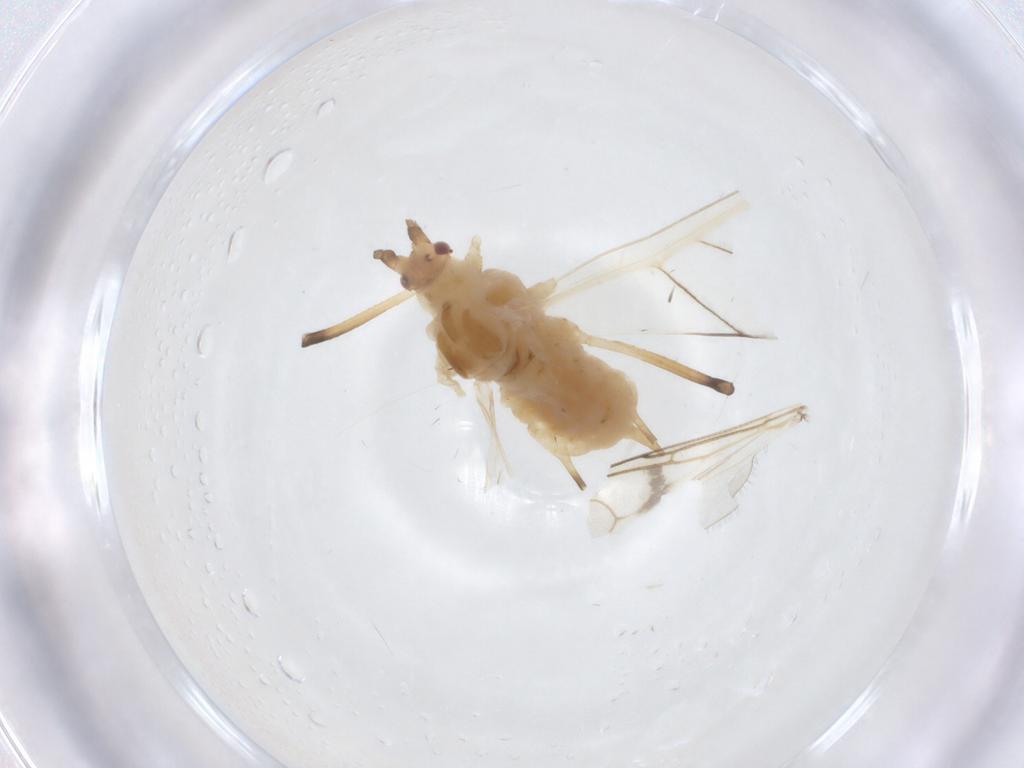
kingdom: Animalia
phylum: Arthropoda
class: Insecta
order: Hemiptera
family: Aphididae
